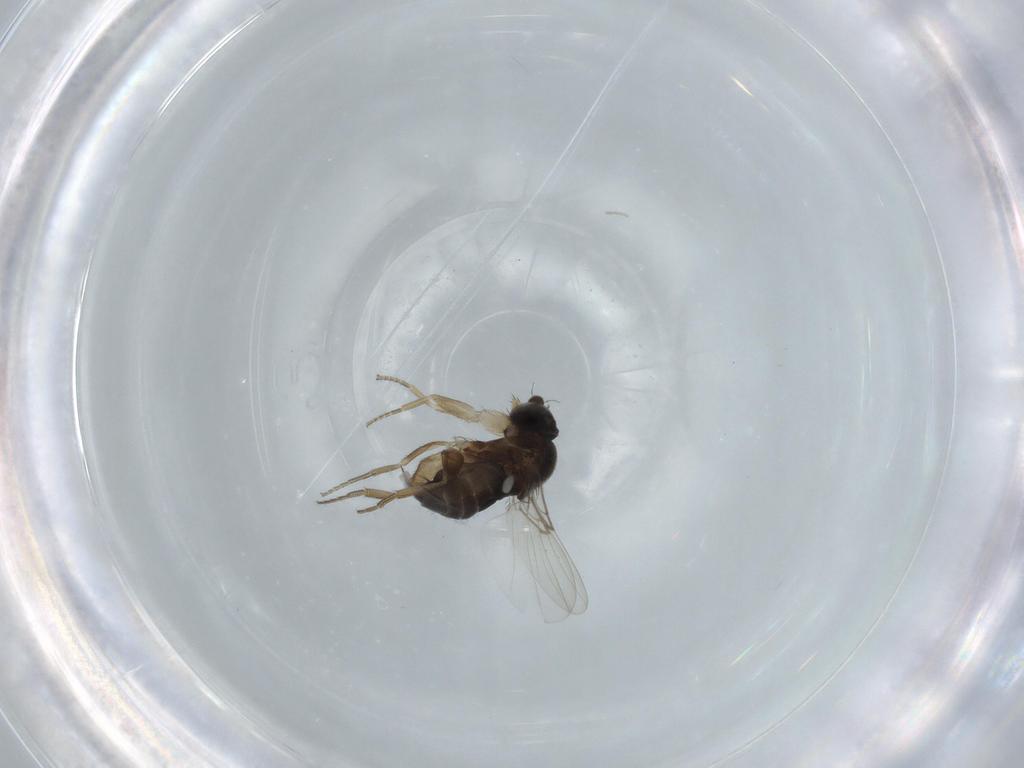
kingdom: Animalia
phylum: Arthropoda
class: Insecta
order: Diptera
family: Phoridae
